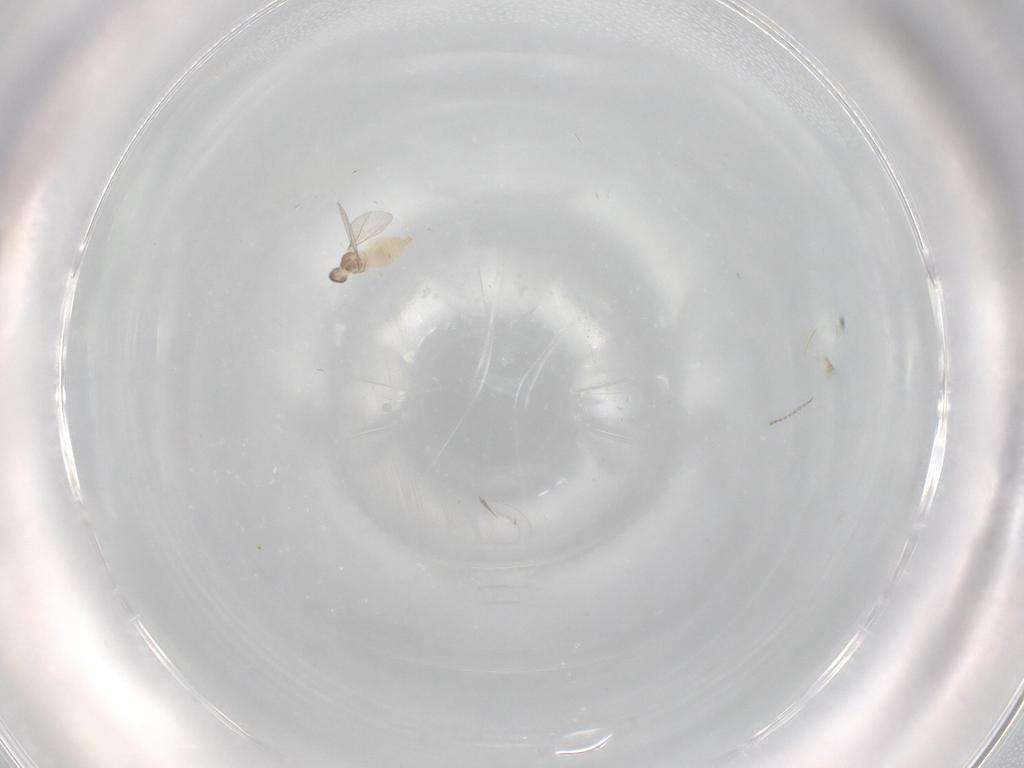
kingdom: Animalia
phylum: Arthropoda
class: Insecta
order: Diptera
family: Cecidomyiidae
